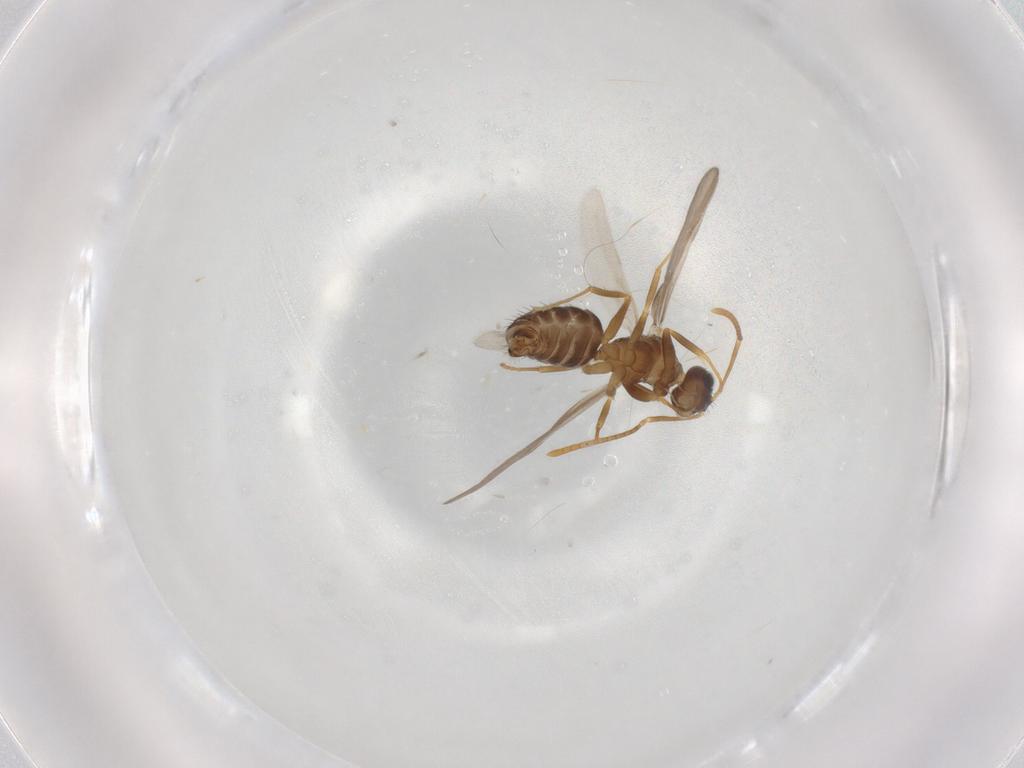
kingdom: Animalia
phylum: Arthropoda
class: Insecta
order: Hymenoptera
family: Formicidae
